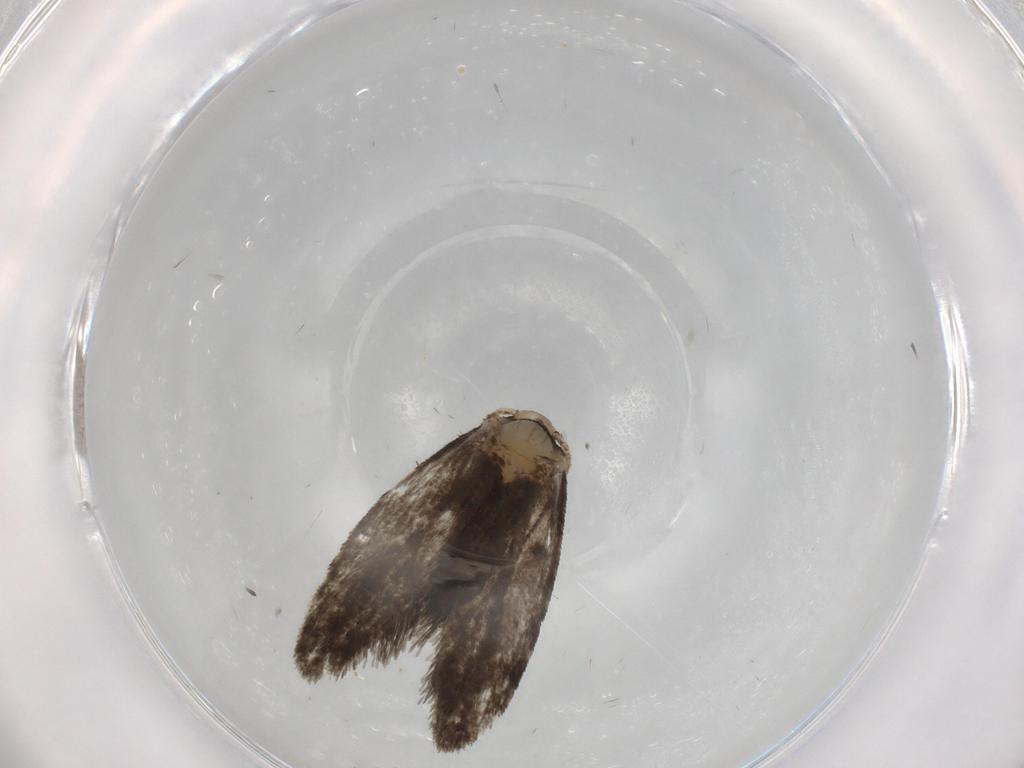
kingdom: Animalia
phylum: Arthropoda
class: Insecta
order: Lepidoptera
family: Psychidae
